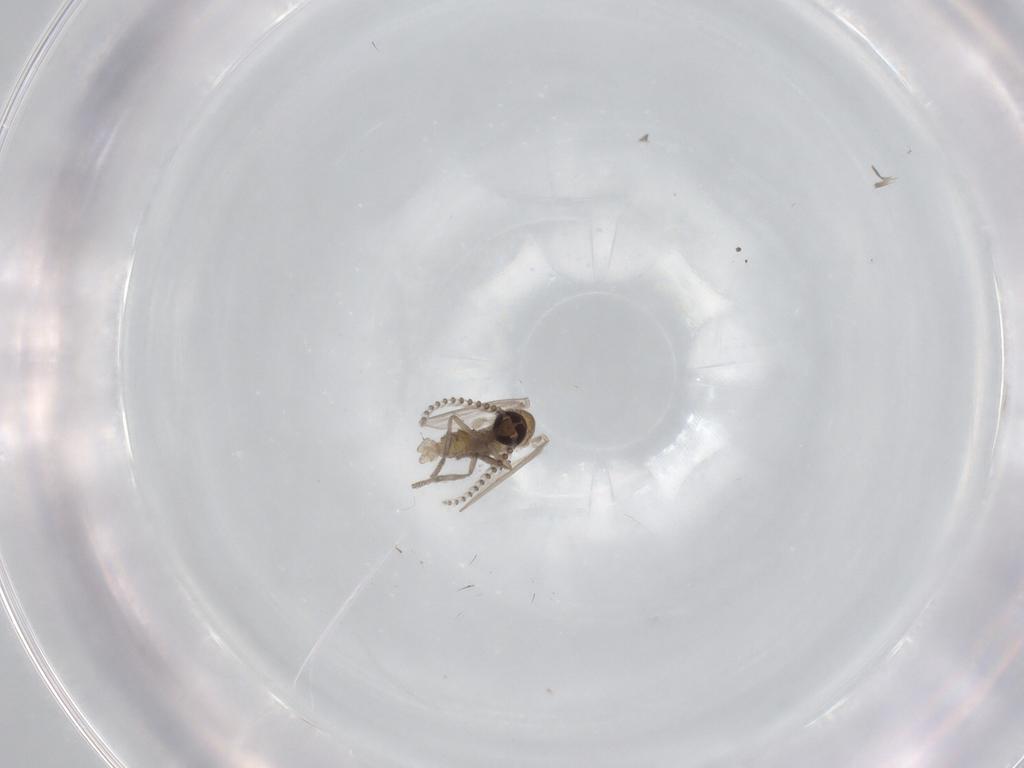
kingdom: Animalia
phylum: Arthropoda
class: Insecta
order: Diptera
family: Psychodidae
